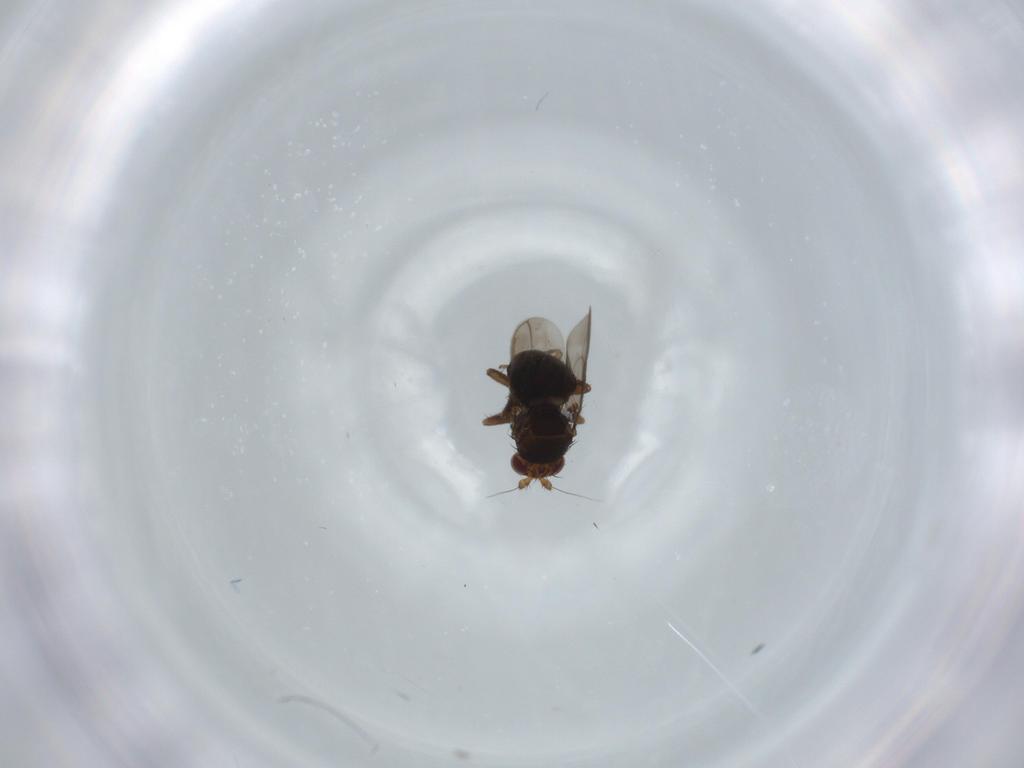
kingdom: Animalia
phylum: Arthropoda
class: Insecta
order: Diptera
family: Sphaeroceridae
